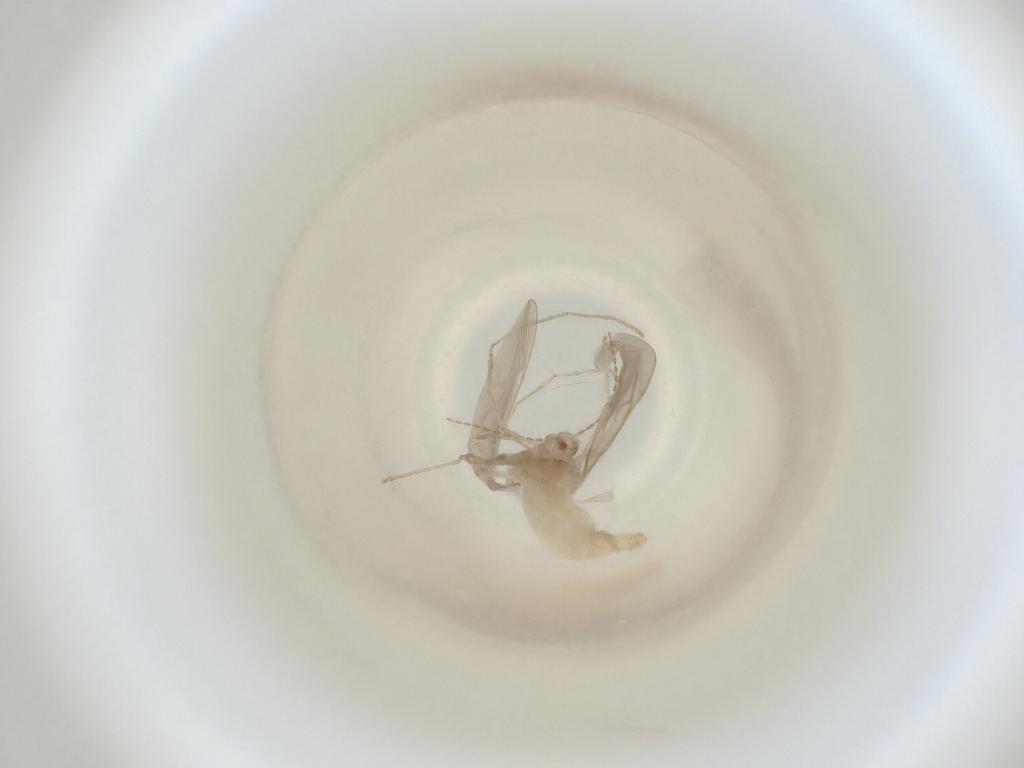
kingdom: Animalia
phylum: Arthropoda
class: Insecta
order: Diptera
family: Cecidomyiidae
